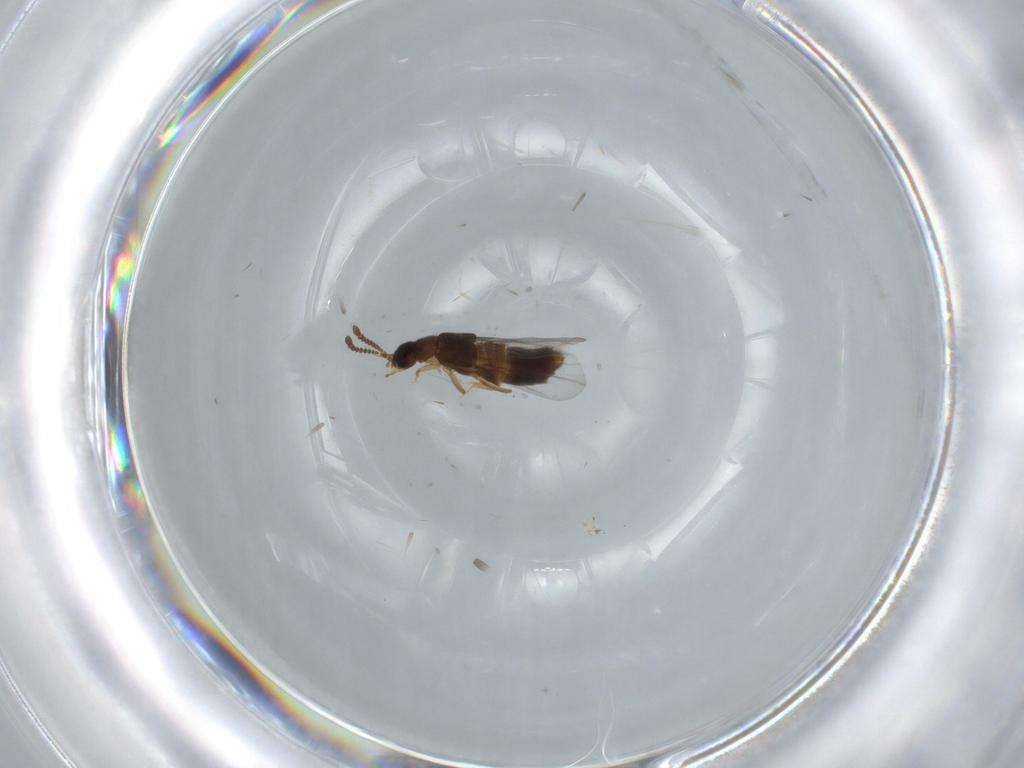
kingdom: Animalia
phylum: Arthropoda
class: Insecta
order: Coleoptera
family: Staphylinidae
